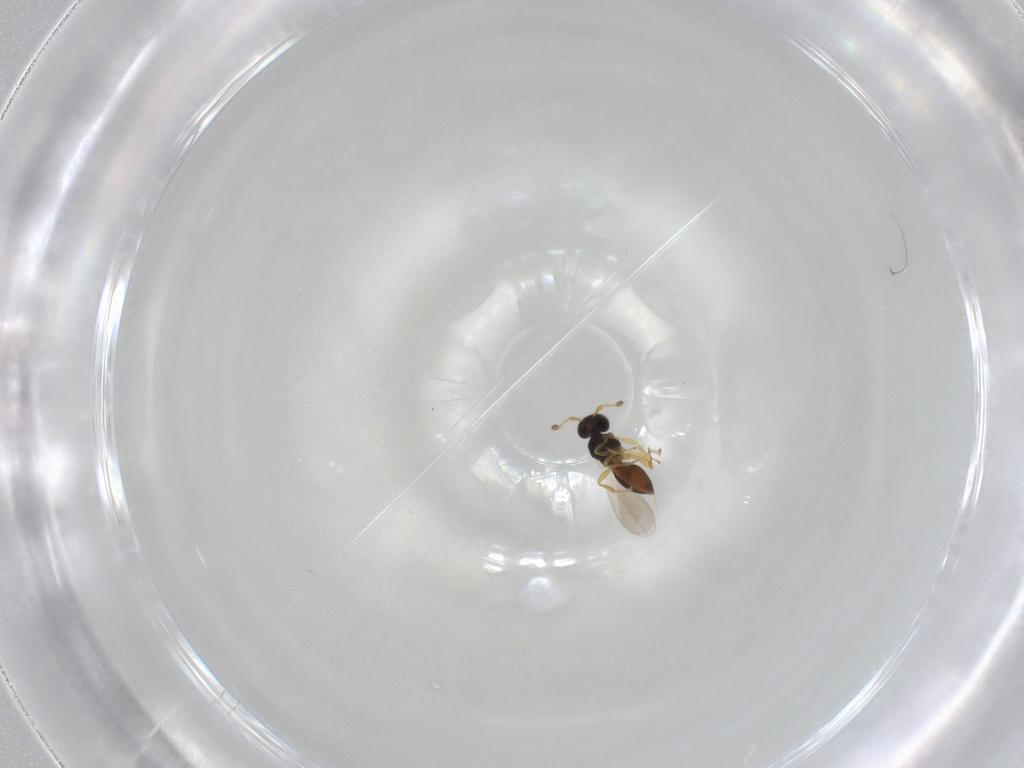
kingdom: Animalia
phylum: Arthropoda
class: Insecta
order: Hymenoptera
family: Platygastridae
